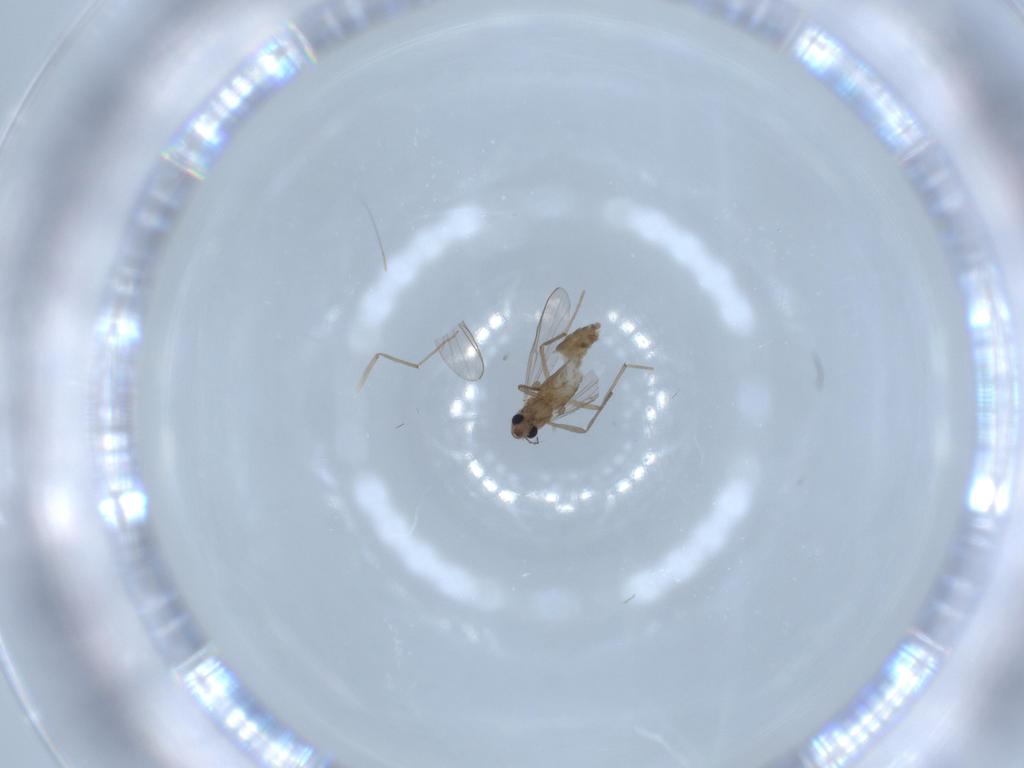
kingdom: Animalia
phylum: Arthropoda
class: Insecta
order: Diptera
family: Chironomidae
